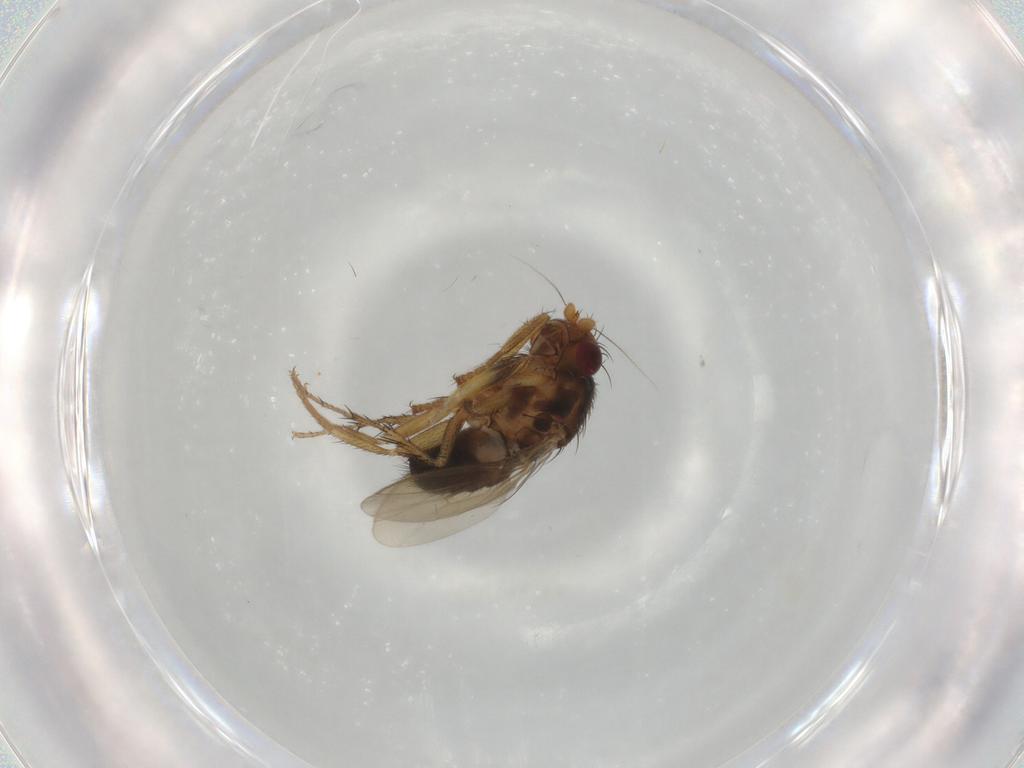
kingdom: Animalia
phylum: Arthropoda
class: Insecta
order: Diptera
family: Sphaeroceridae
